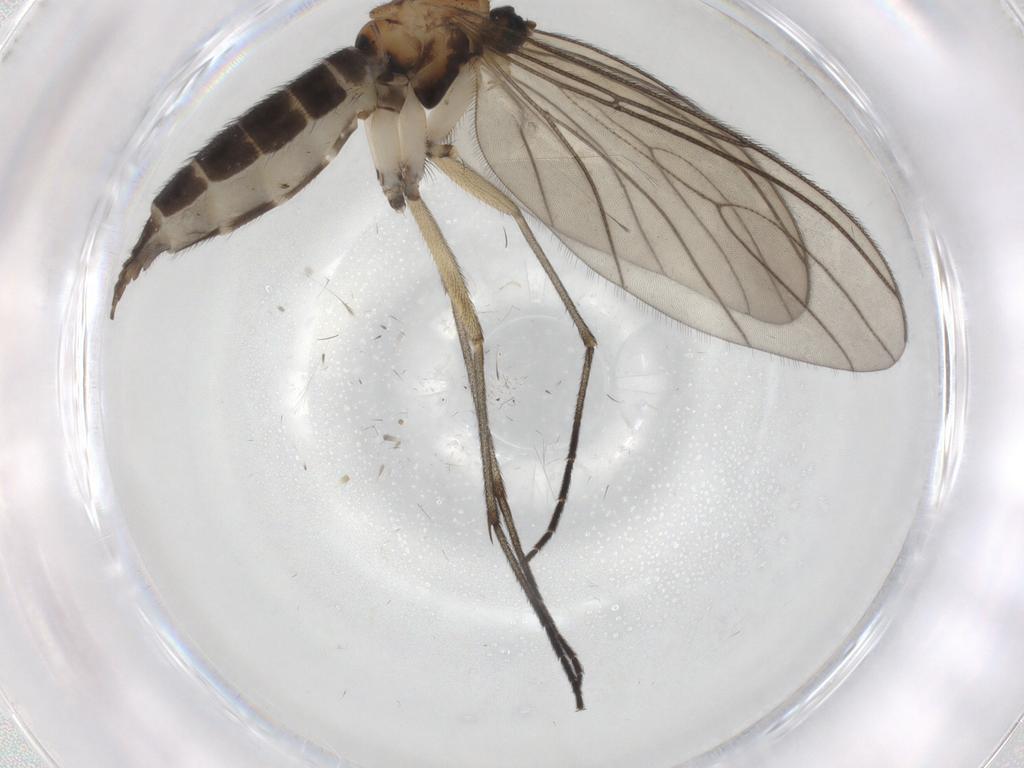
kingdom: Animalia
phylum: Arthropoda
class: Insecta
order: Diptera
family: Sciaridae
